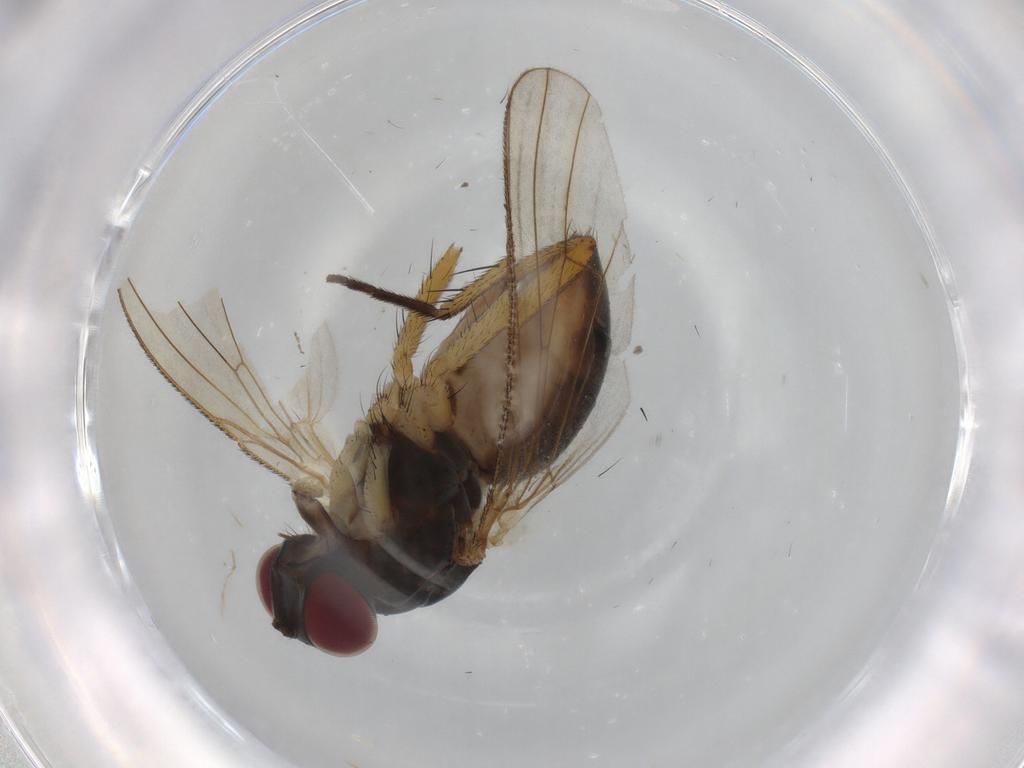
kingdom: Animalia
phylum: Arthropoda
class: Insecta
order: Diptera
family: Muscidae
